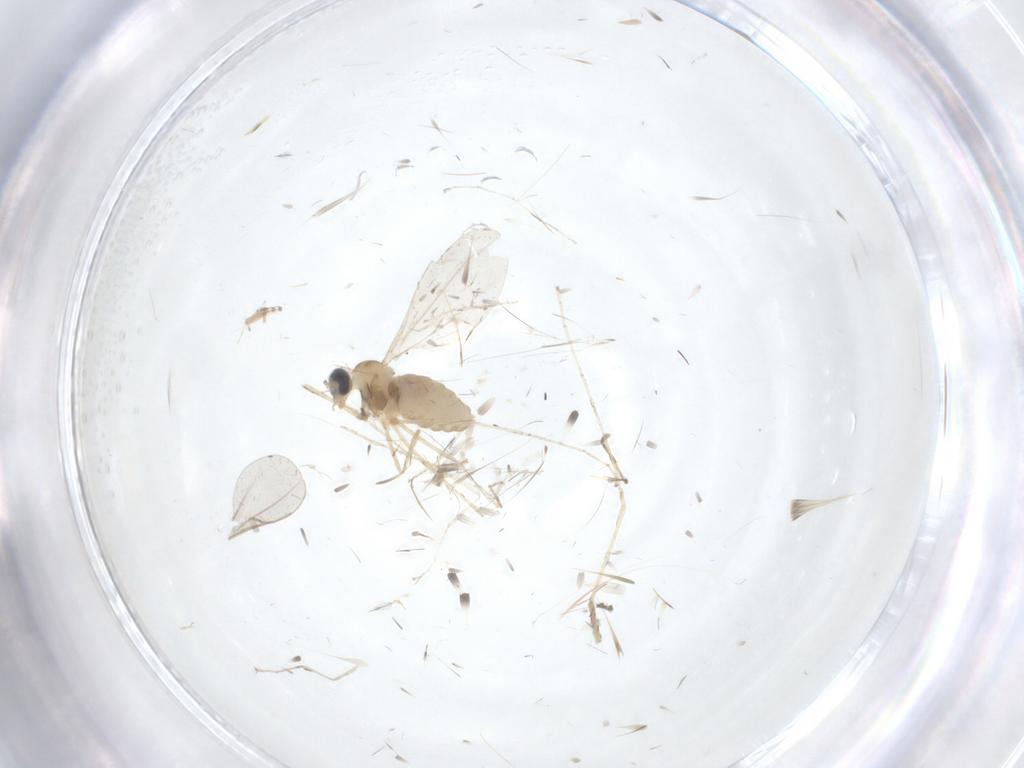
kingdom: Animalia
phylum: Arthropoda
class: Insecta
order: Diptera
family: Cecidomyiidae
